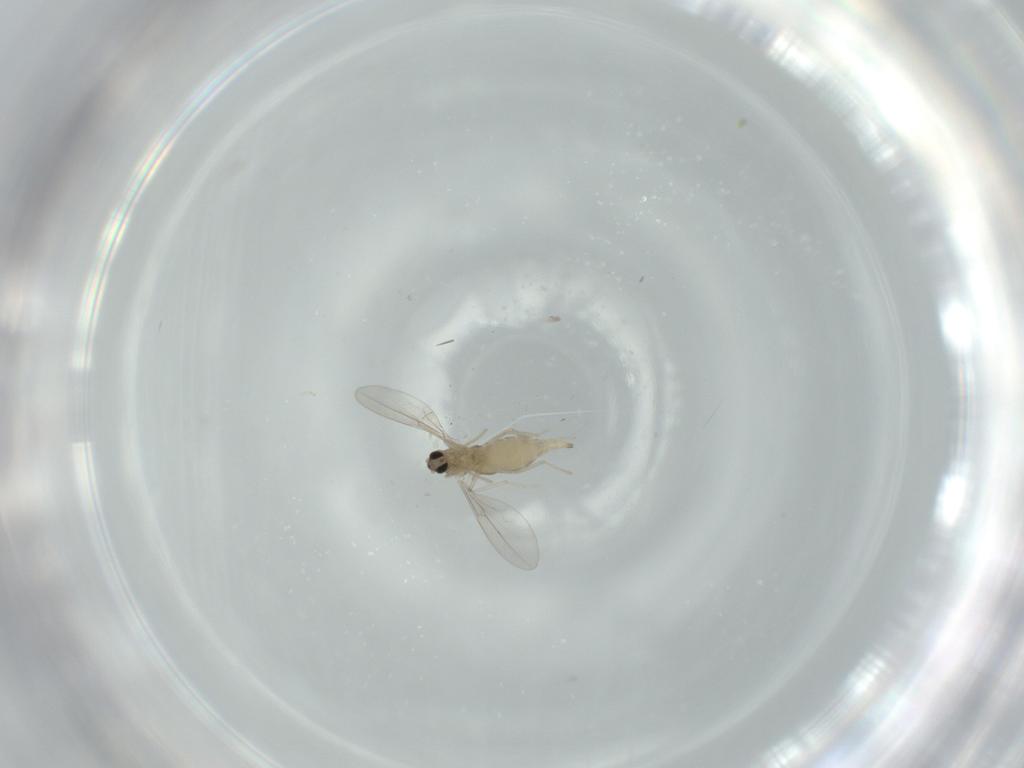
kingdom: Animalia
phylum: Arthropoda
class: Insecta
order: Diptera
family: Cecidomyiidae
